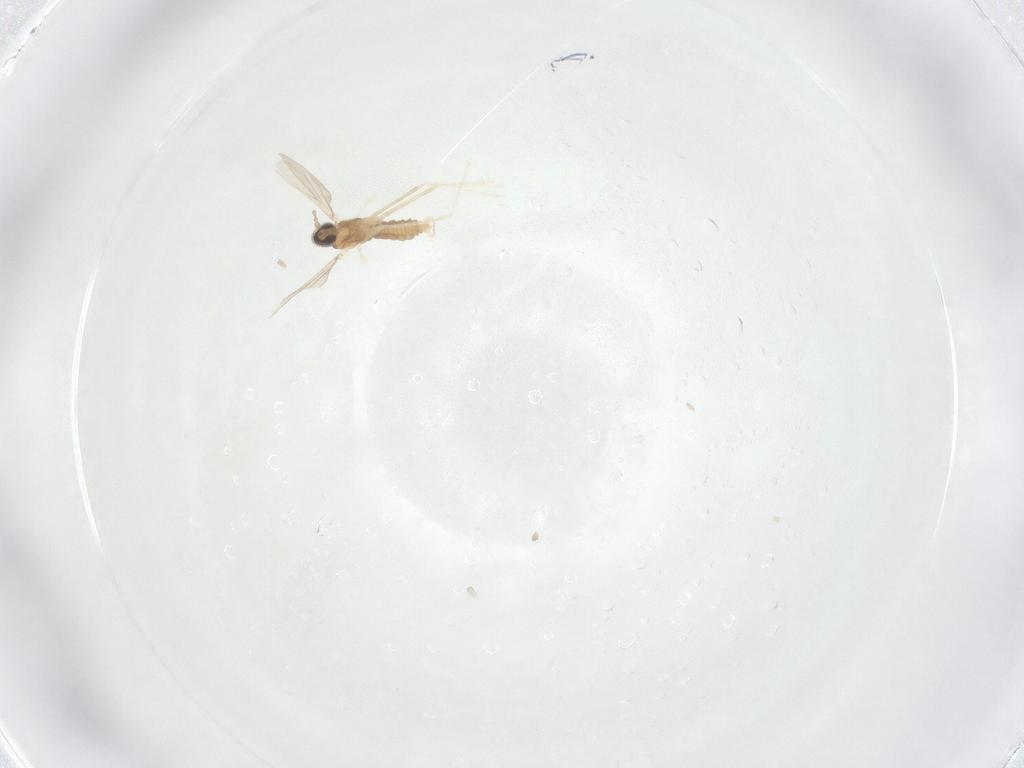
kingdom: Animalia
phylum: Arthropoda
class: Insecta
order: Diptera
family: Cecidomyiidae
